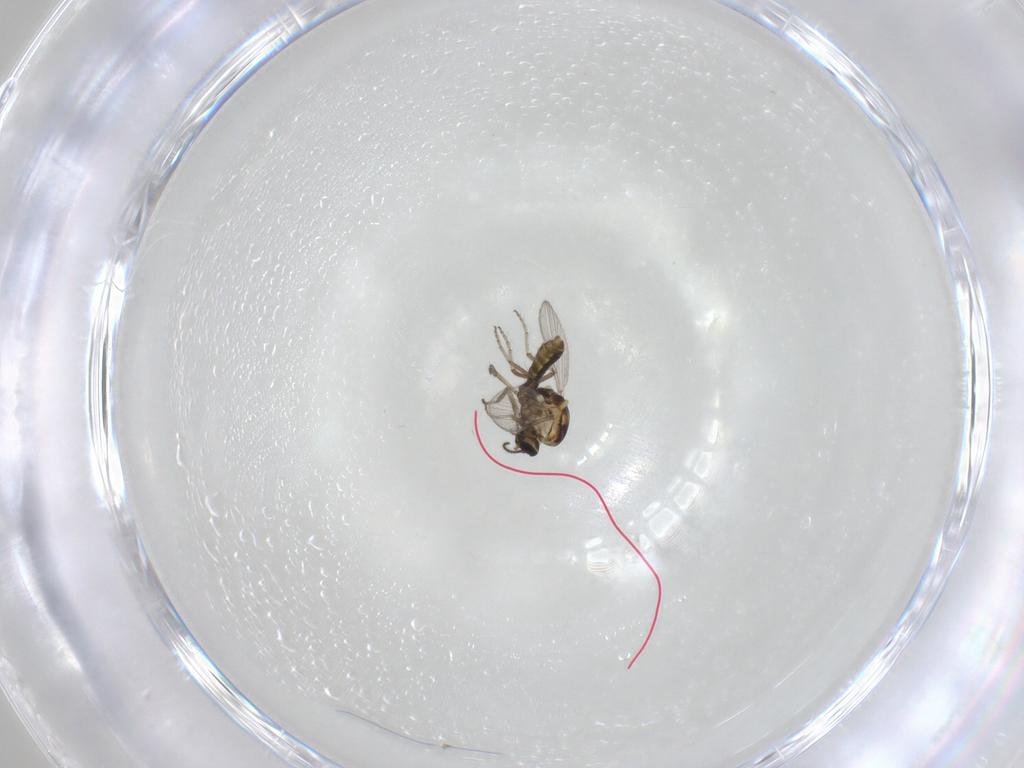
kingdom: Animalia
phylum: Arthropoda
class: Insecta
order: Diptera
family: Ceratopogonidae
